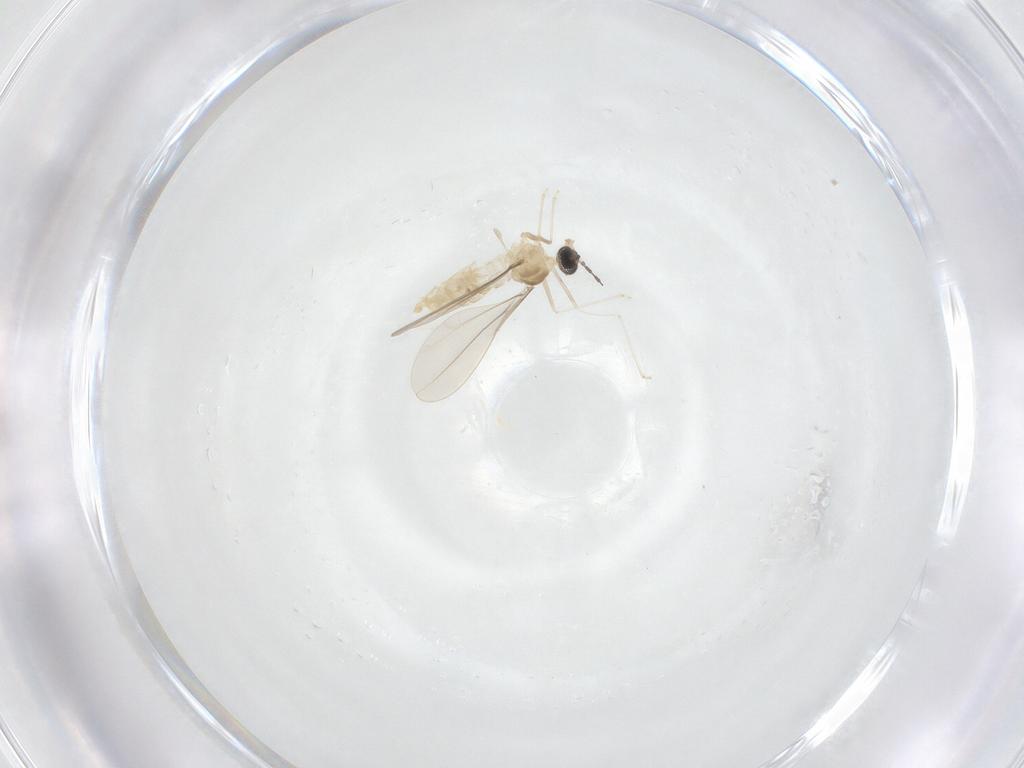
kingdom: Animalia
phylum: Arthropoda
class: Insecta
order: Diptera
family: Cecidomyiidae
